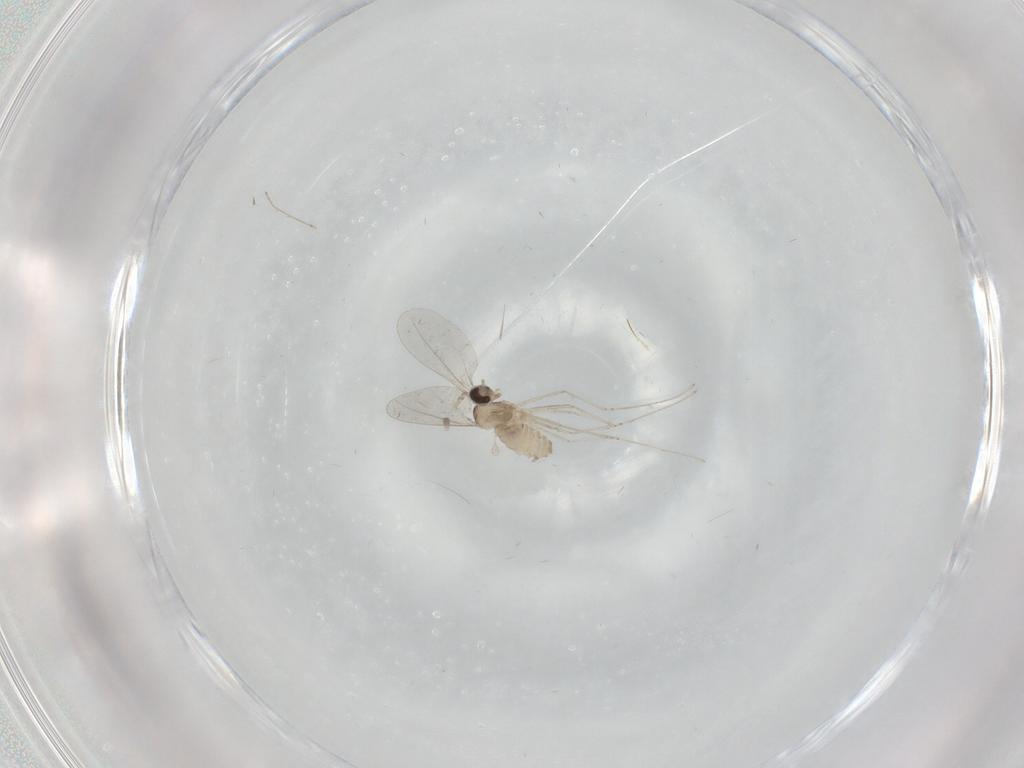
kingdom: Animalia
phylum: Arthropoda
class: Insecta
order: Diptera
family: Cecidomyiidae
